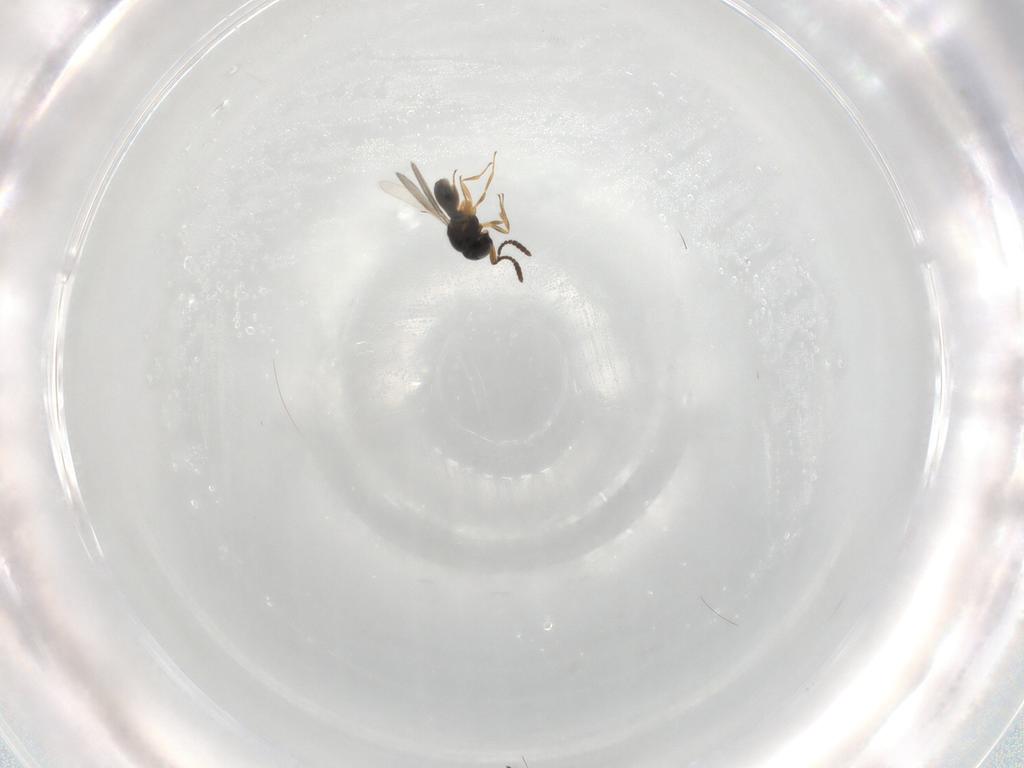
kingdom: Animalia
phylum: Arthropoda
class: Insecta
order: Hymenoptera
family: Scelionidae
